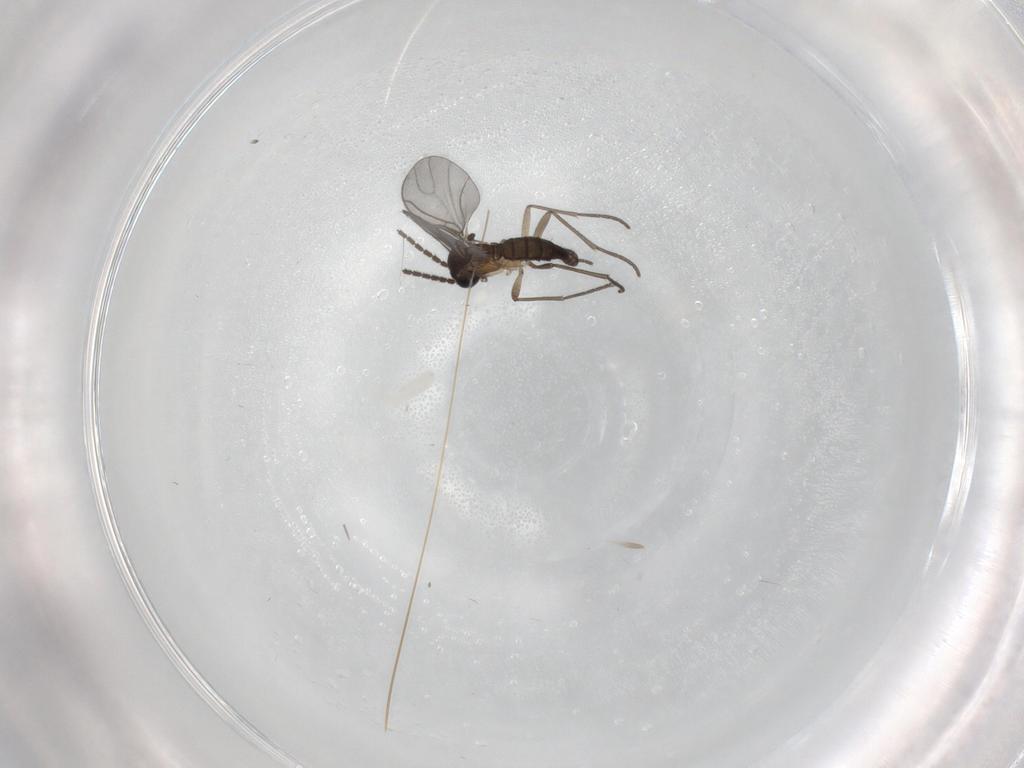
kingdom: Animalia
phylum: Arthropoda
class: Insecta
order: Diptera
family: Sciaridae
